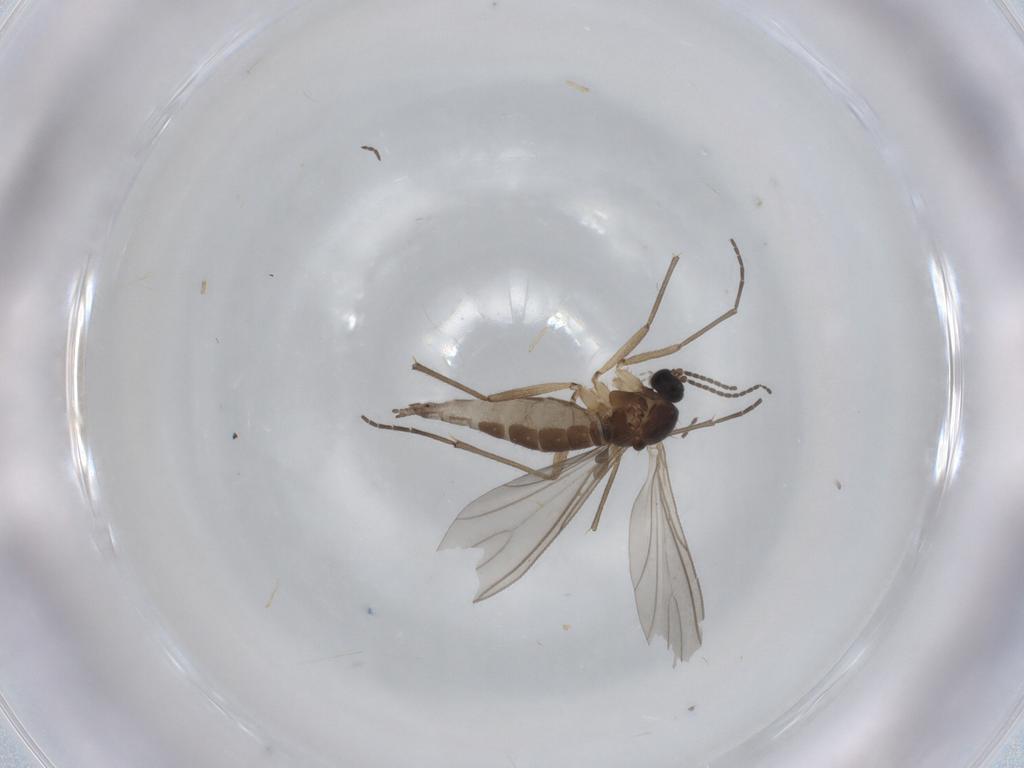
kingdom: Animalia
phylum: Arthropoda
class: Insecta
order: Diptera
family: Sciaridae
